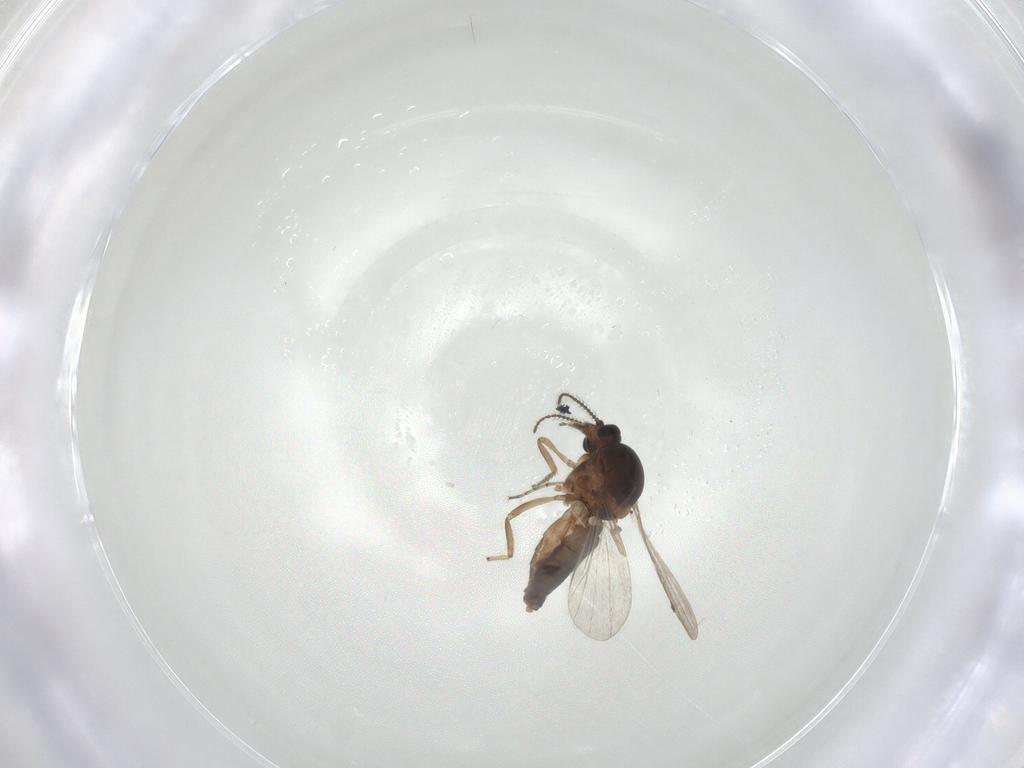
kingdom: Animalia
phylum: Arthropoda
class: Insecta
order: Diptera
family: Ceratopogonidae
